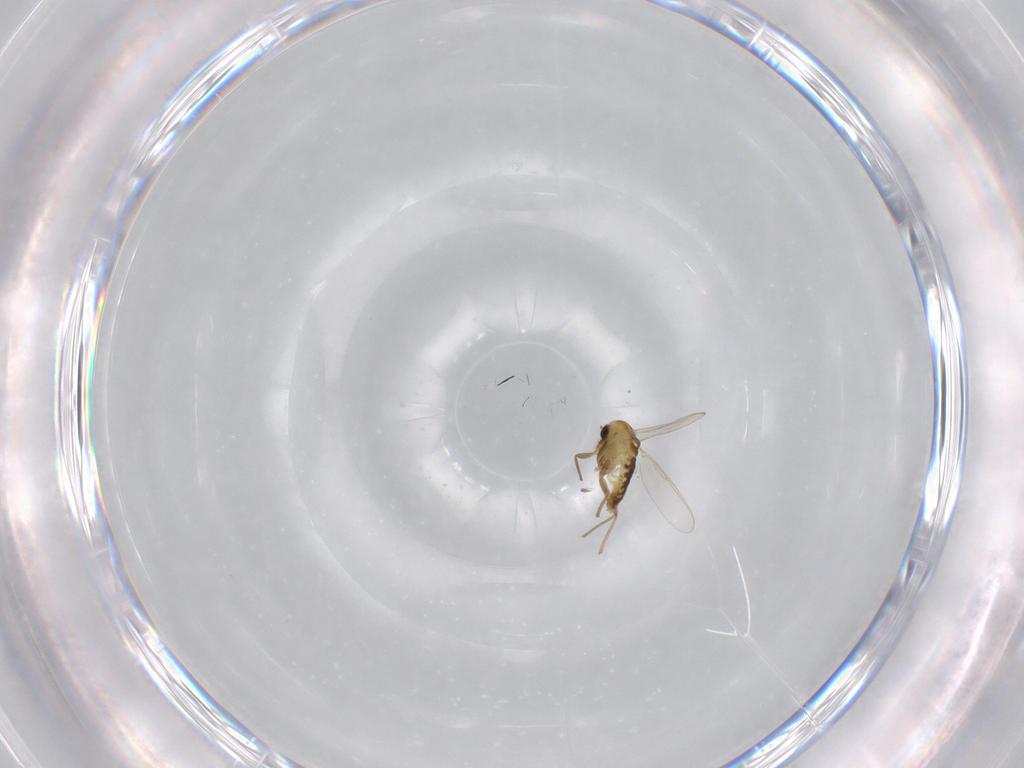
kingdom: Animalia
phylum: Arthropoda
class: Insecta
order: Diptera
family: Chironomidae
